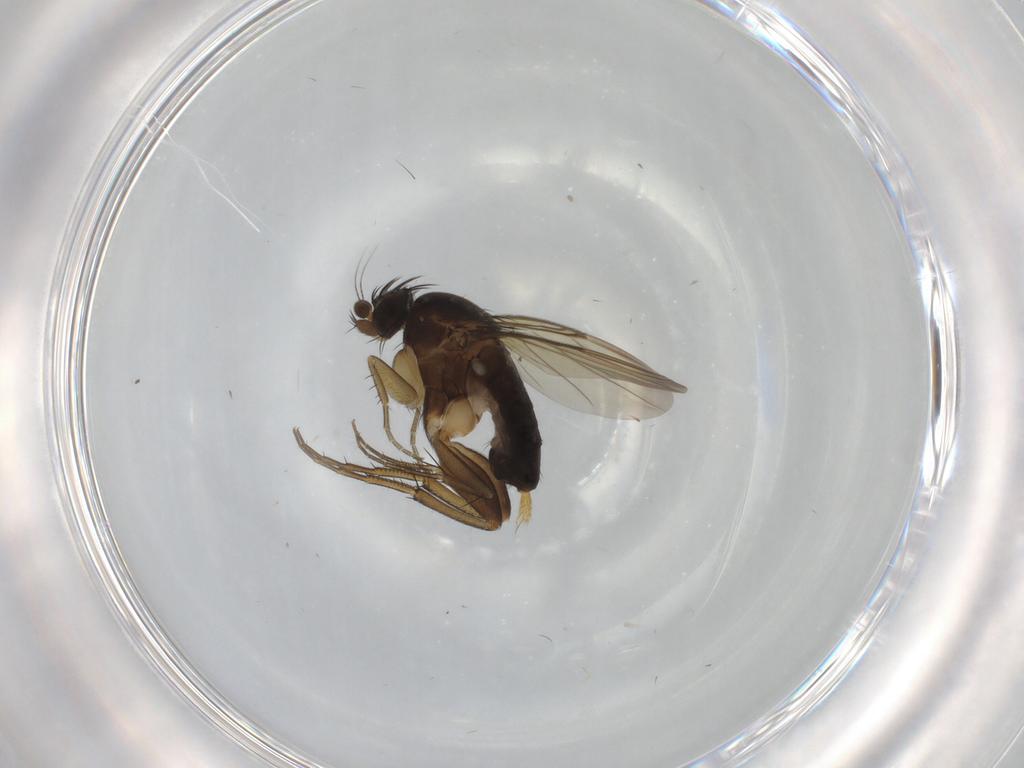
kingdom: Animalia
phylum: Arthropoda
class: Insecta
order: Diptera
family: Phoridae
